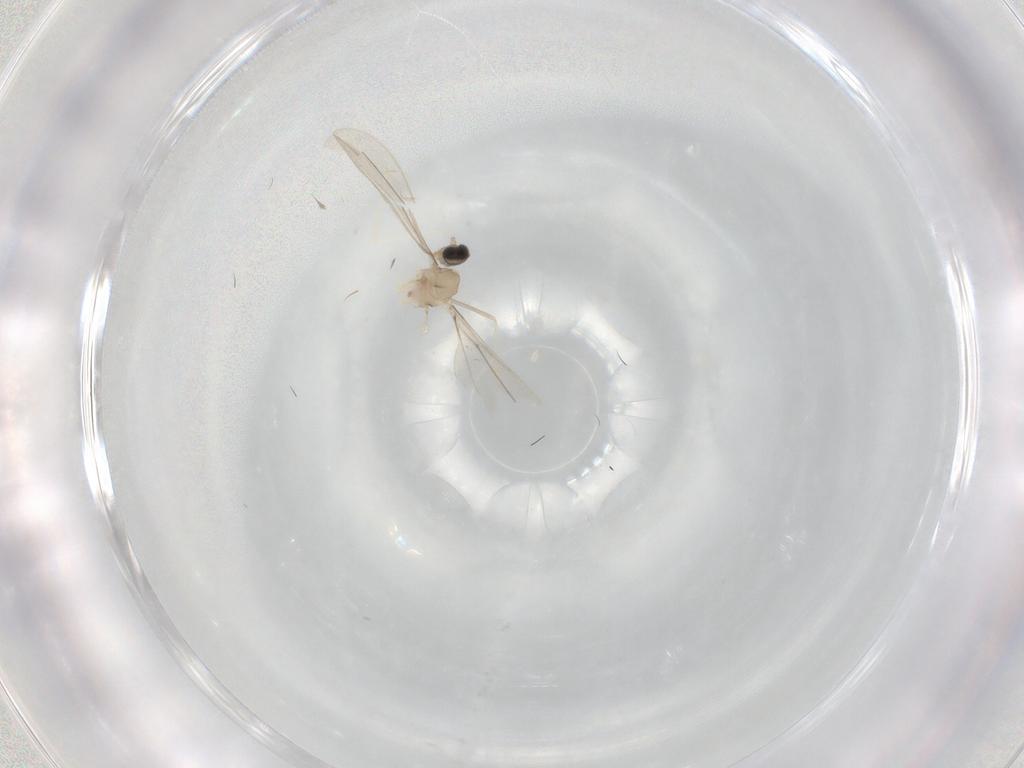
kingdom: Animalia
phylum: Arthropoda
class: Insecta
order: Diptera
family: Cecidomyiidae
